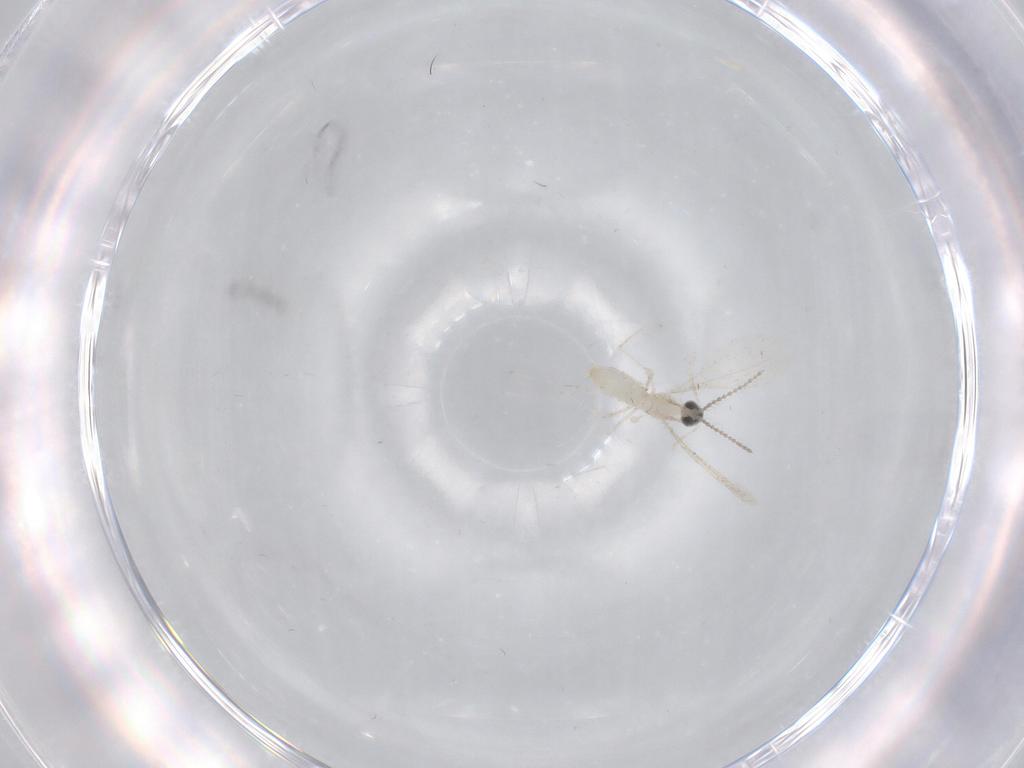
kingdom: Animalia
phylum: Arthropoda
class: Insecta
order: Diptera
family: Cecidomyiidae
